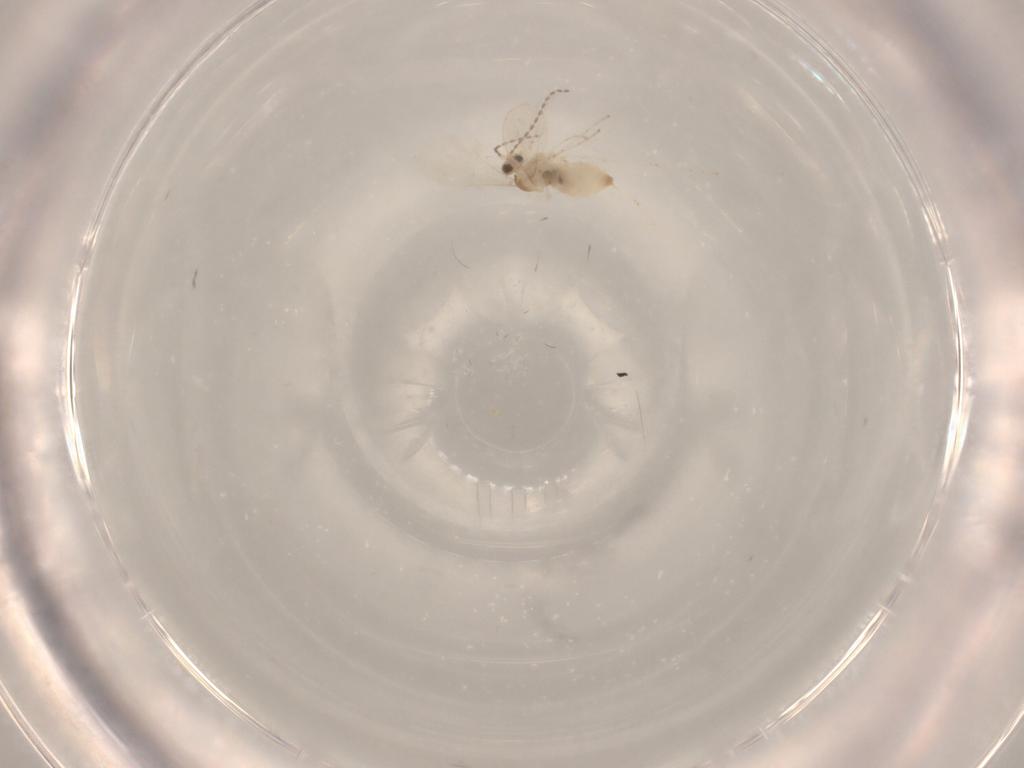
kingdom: Animalia
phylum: Arthropoda
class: Insecta
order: Diptera
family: Cecidomyiidae
